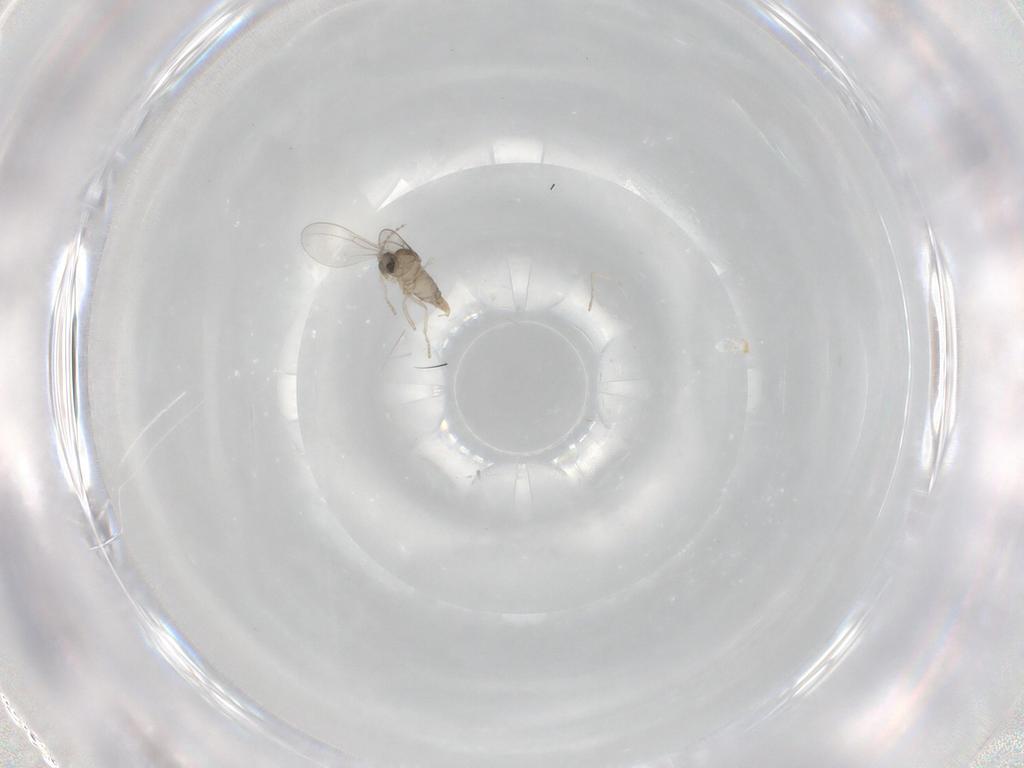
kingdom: Animalia
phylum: Arthropoda
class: Insecta
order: Diptera
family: Cecidomyiidae
